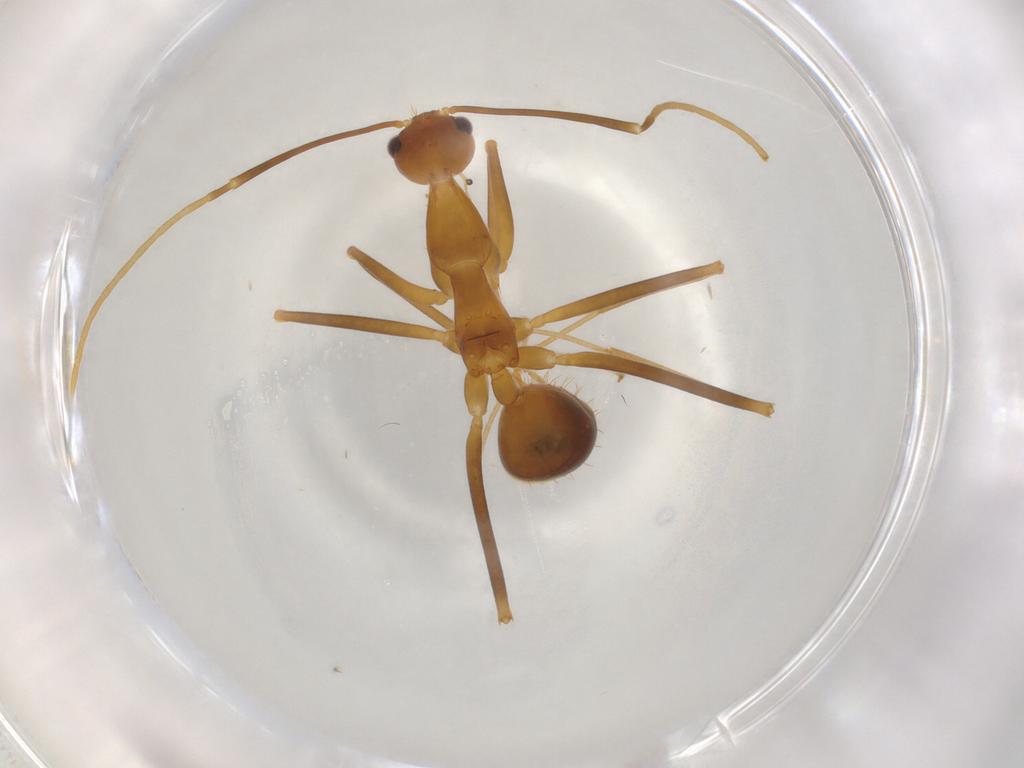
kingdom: Animalia
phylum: Arthropoda
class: Insecta
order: Hymenoptera
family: Formicidae
